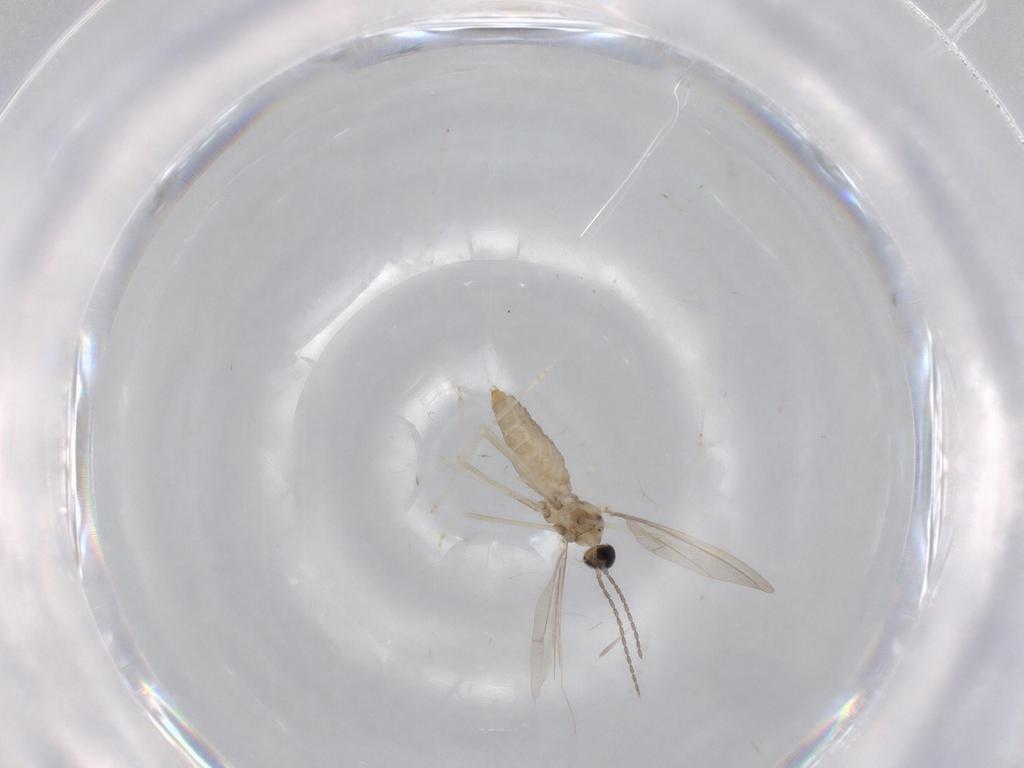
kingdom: Animalia
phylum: Arthropoda
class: Insecta
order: Diptera
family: Cecidomyiidae
